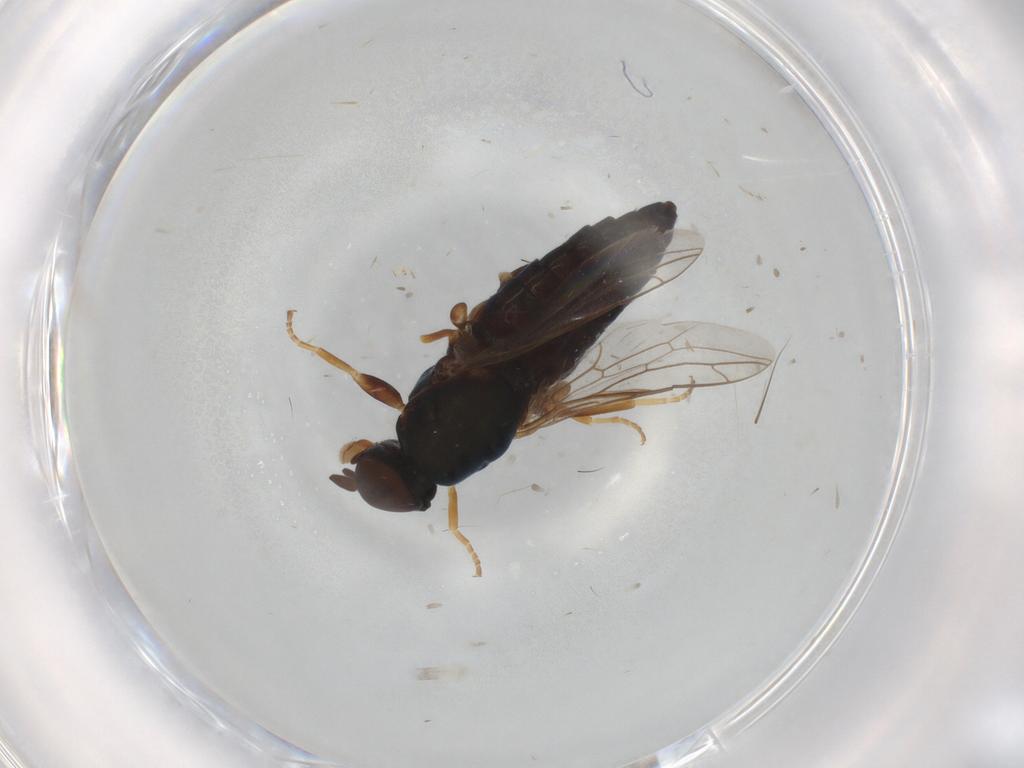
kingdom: Animalia
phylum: Arthropoda
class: Insecta
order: Diptera
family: Scenopinidae
